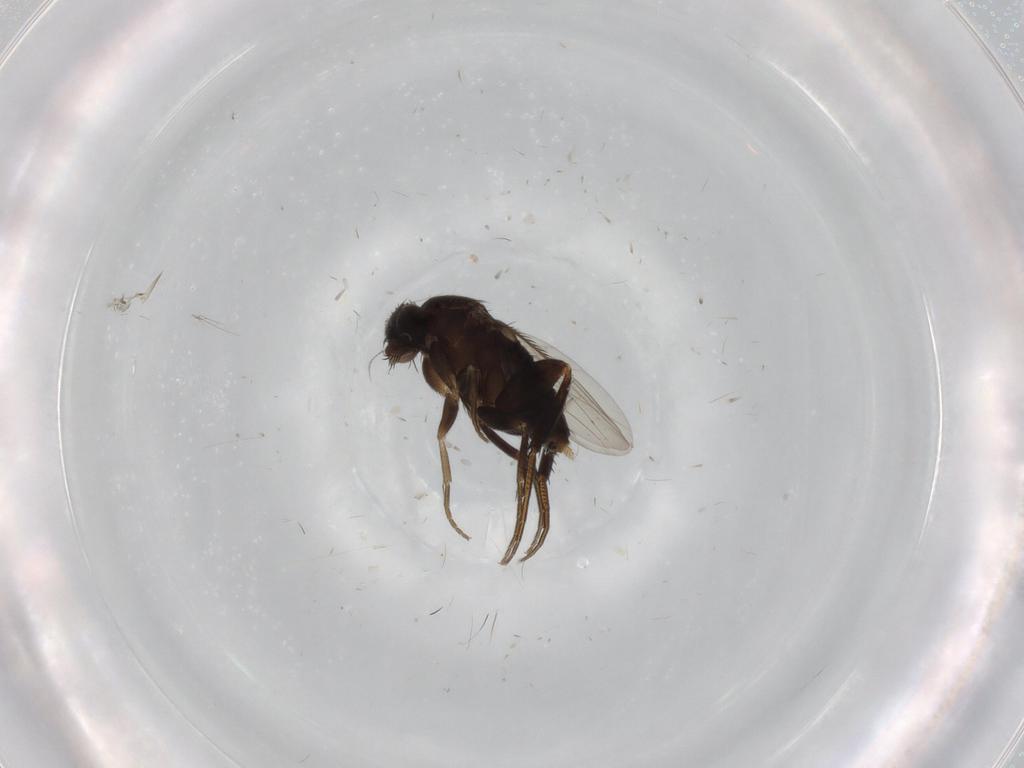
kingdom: Animalia
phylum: Arthropoda
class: Insecta
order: Diptera
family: Phoridae
